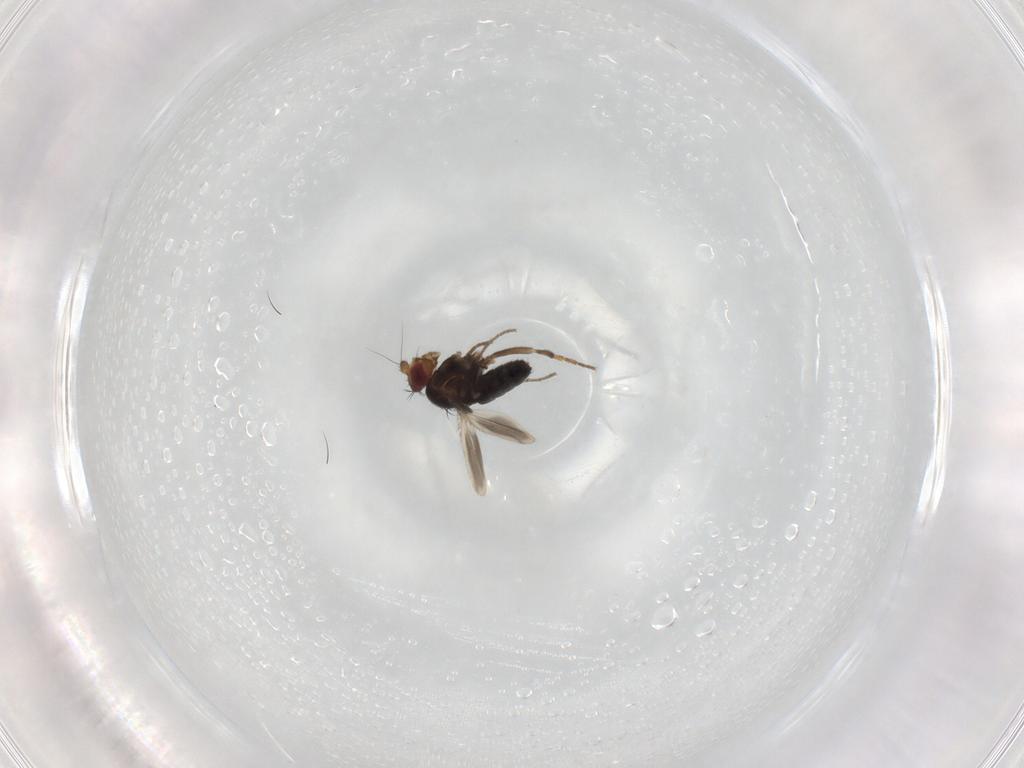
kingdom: Animalia
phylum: Arthropoda
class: Insecta
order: Diptera
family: Sphaeroceridae
